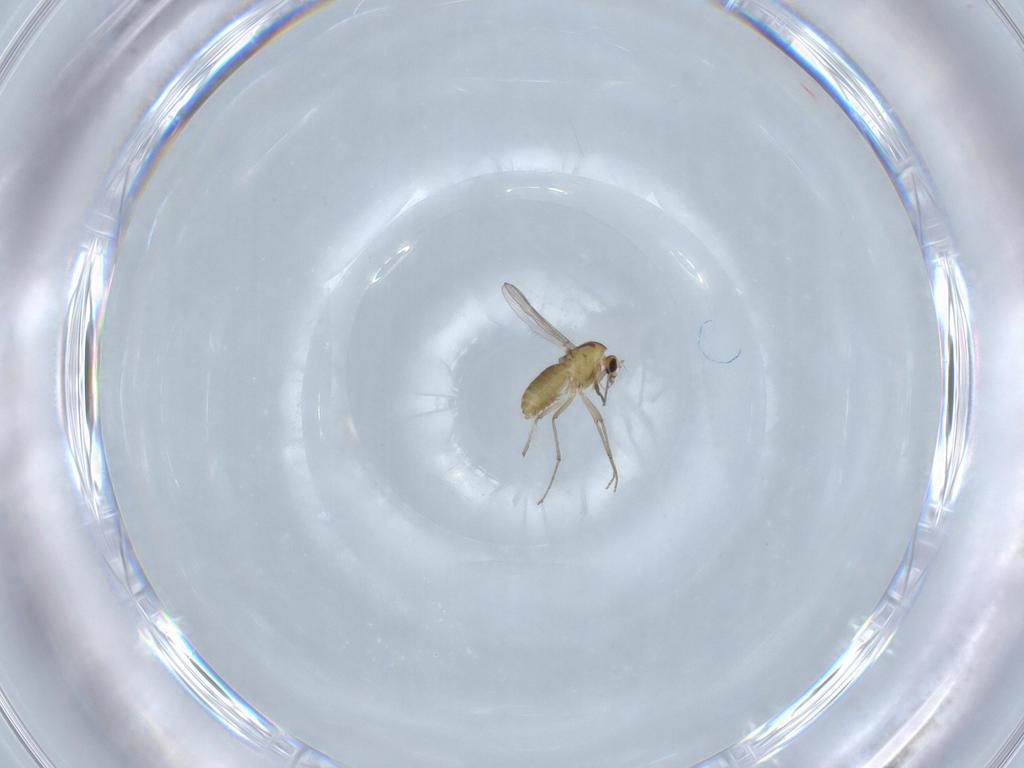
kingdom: Animalia
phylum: Arthropoda
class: Insecta
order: Diptera
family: Chironomidae
